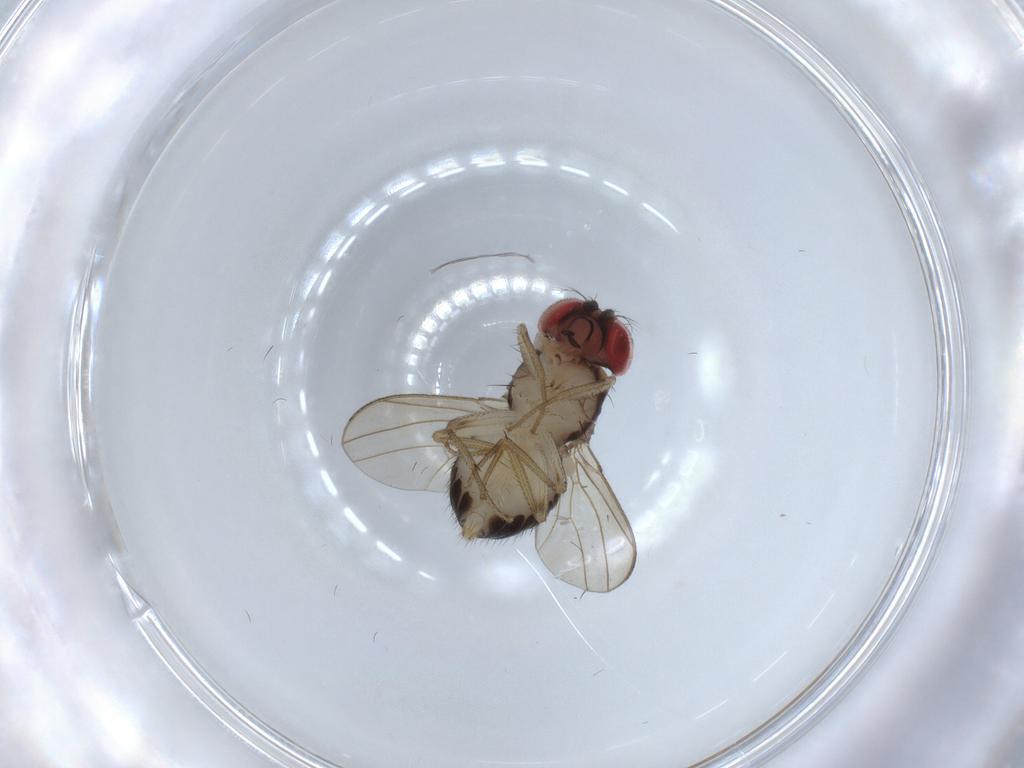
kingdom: Animalia
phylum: Arthropoda
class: Insecta
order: Diptera
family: Drosophilidae
